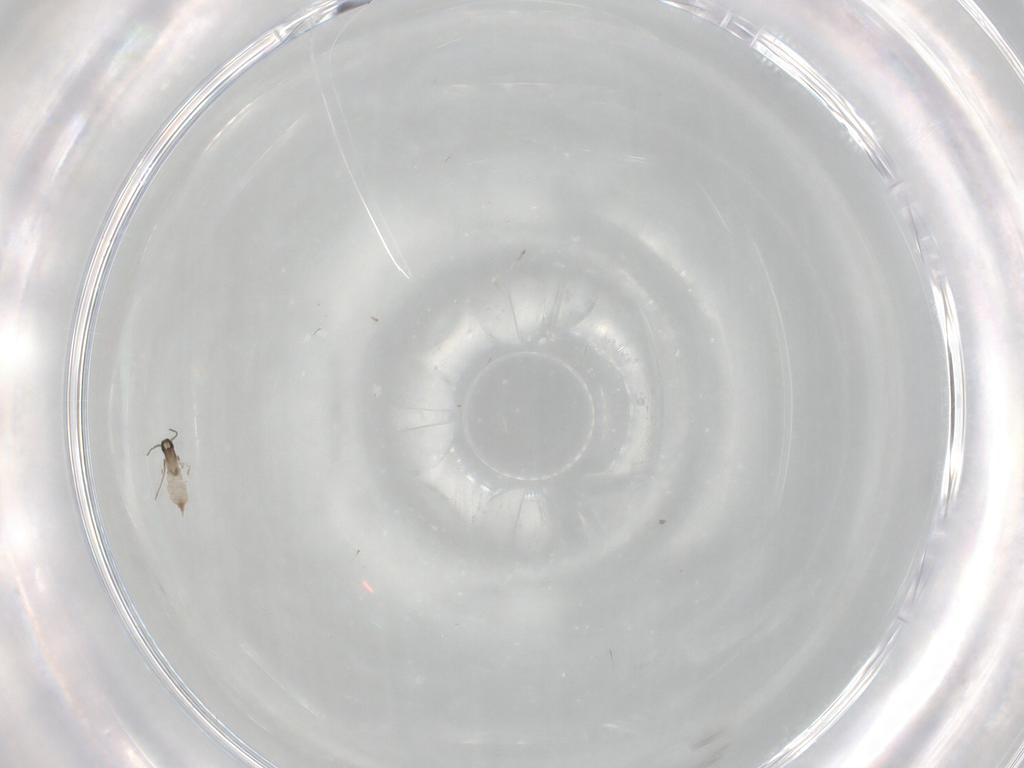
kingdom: Animalia
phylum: Arthropoda
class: Insecta
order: Diptera
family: Cecidomyiidae
